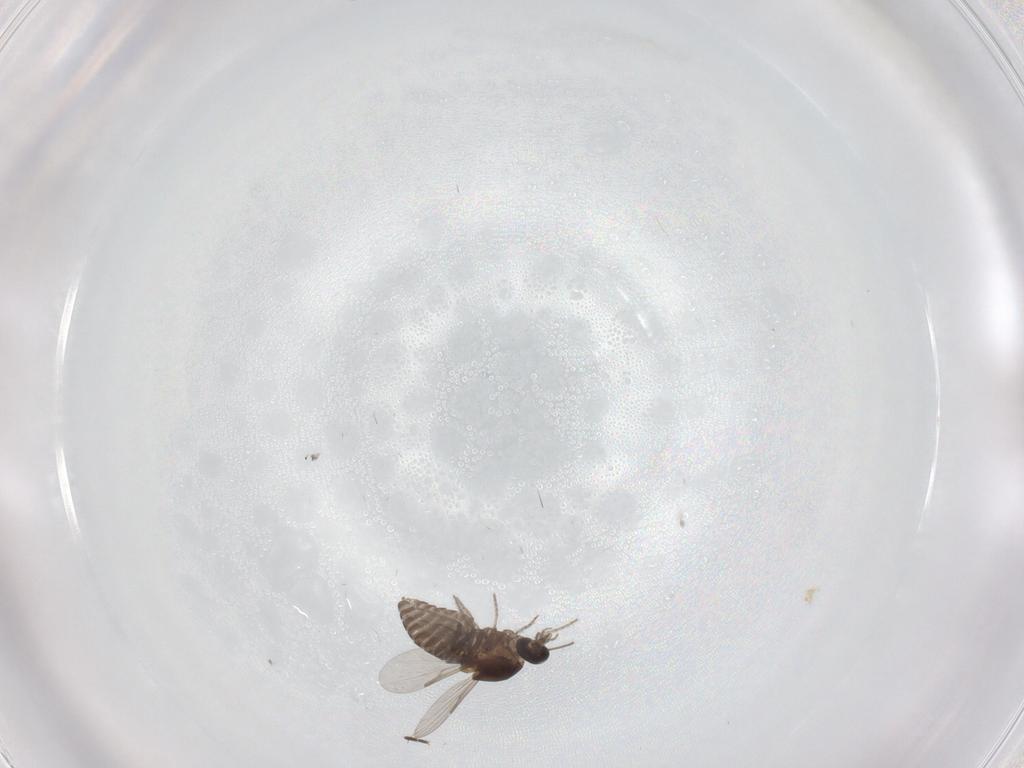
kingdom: Animalia
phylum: Arthropoda
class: Insecta
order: Diptera
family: Phoridae
